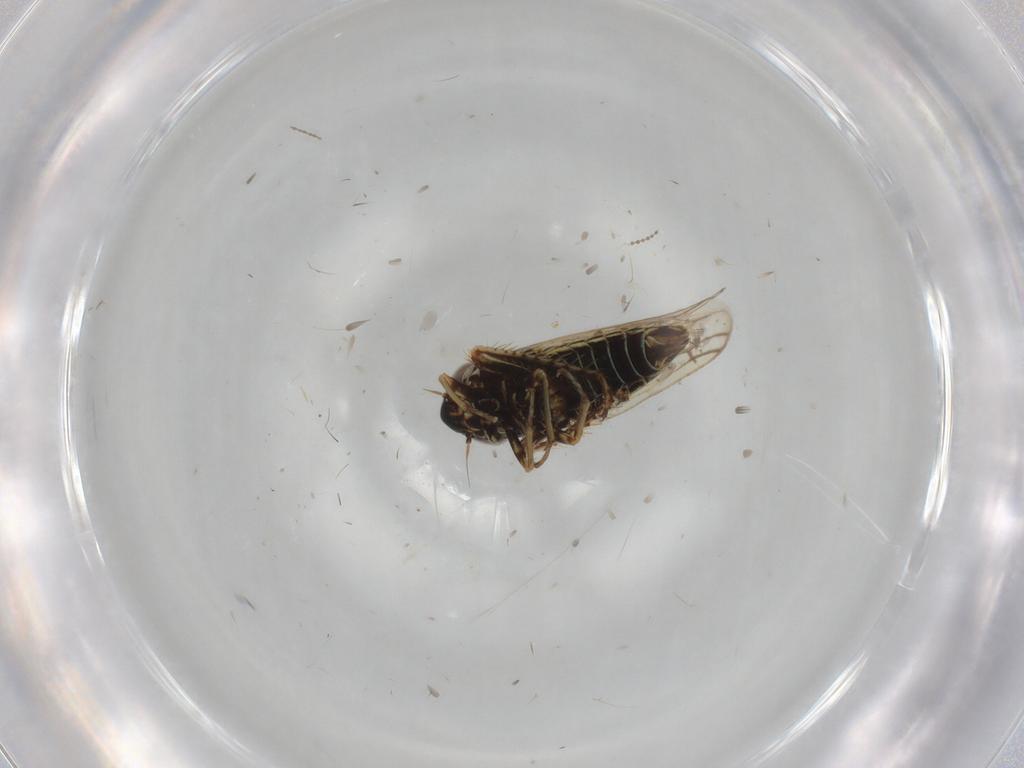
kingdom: Animalia
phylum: Arthropoda
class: Insecta
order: Hemiptera
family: Cicadellidae
